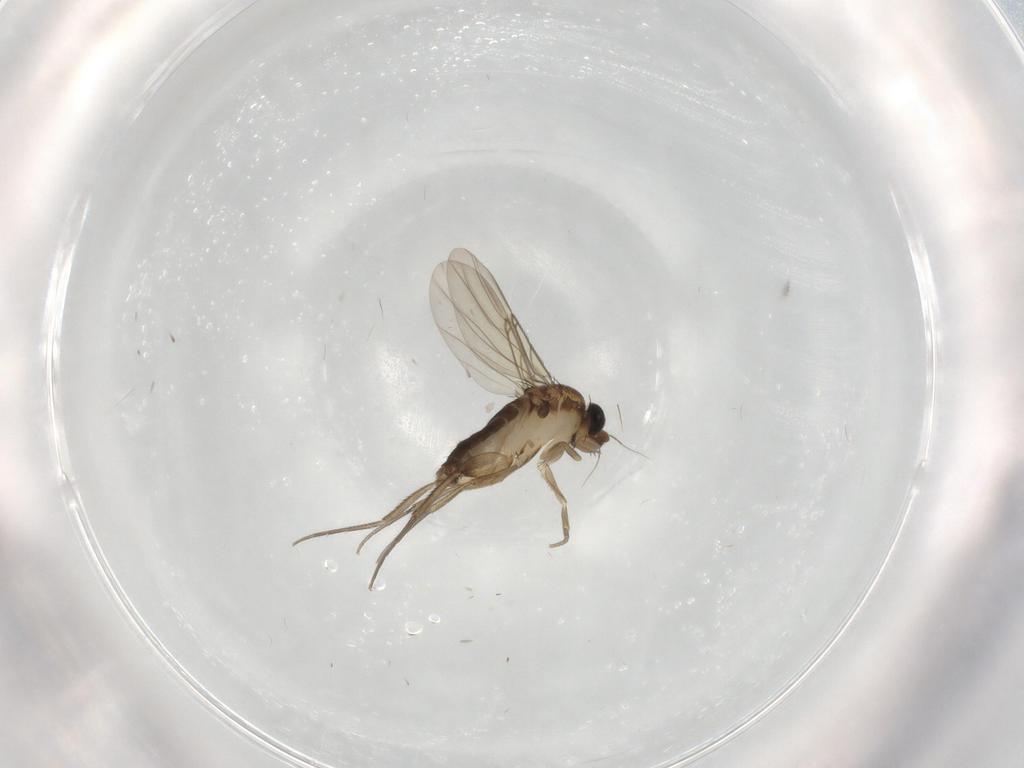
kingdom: Animalia
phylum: Arthropoda
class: Insecta
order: Diptera
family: Phoridae
